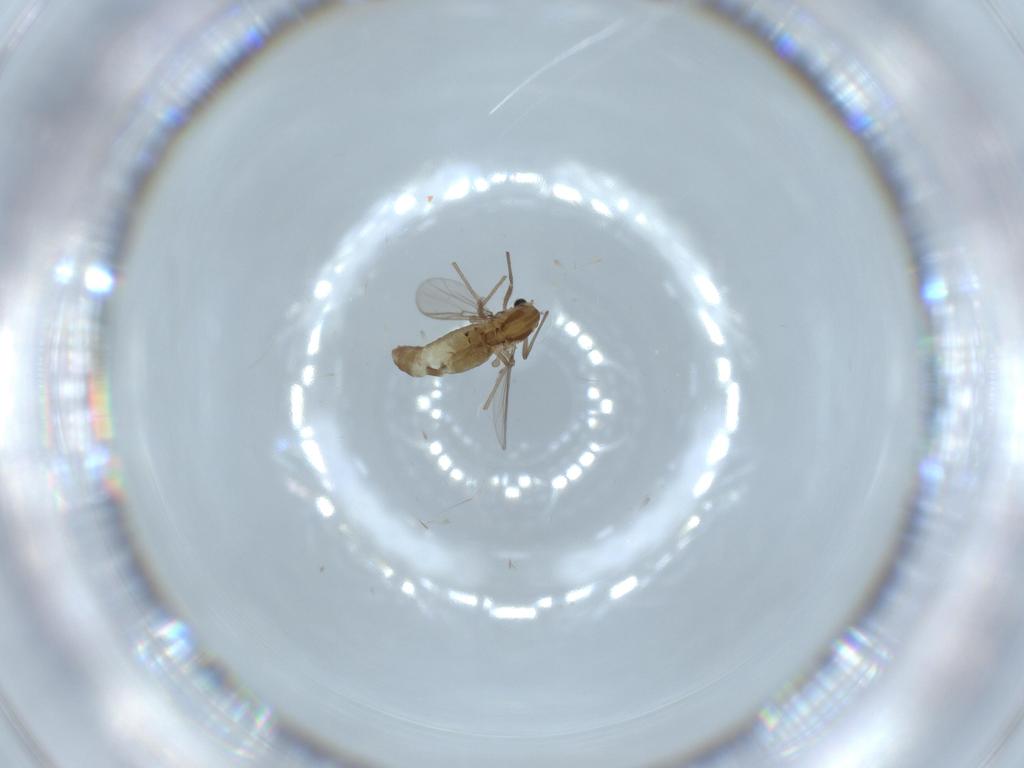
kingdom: Animalia
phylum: Arthropoda
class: Insecta
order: Diptera
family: Chironomidae
